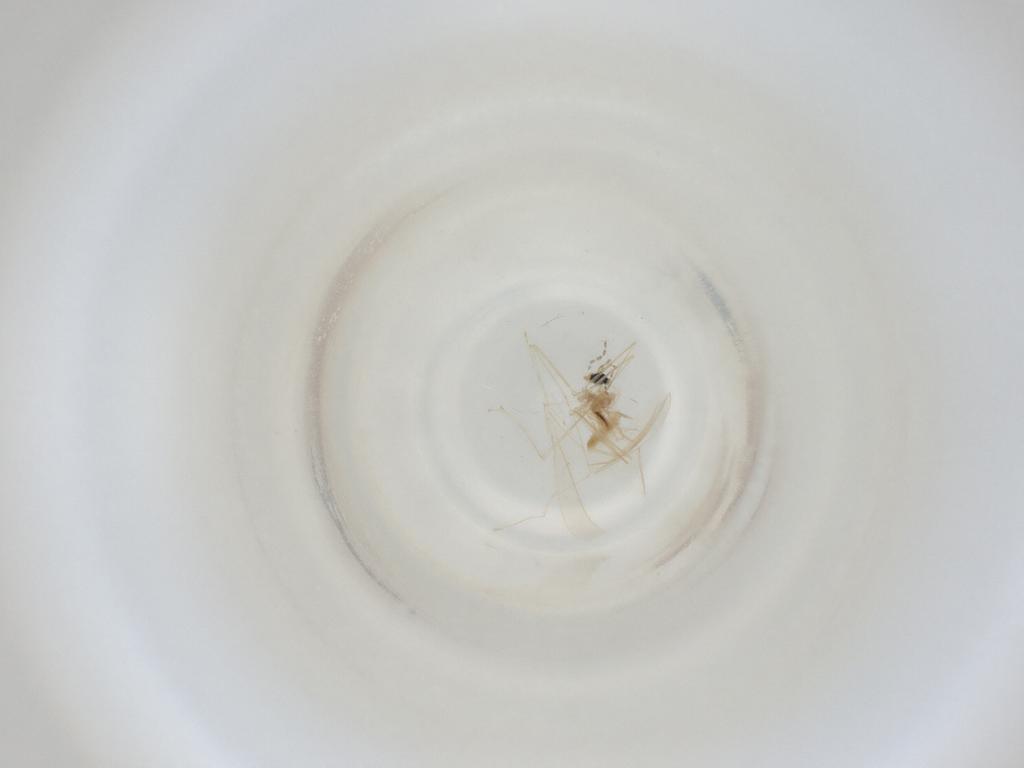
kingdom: Animalia
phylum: Arthropoda
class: Insecta
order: Diptera
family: Cecidomyiidae
